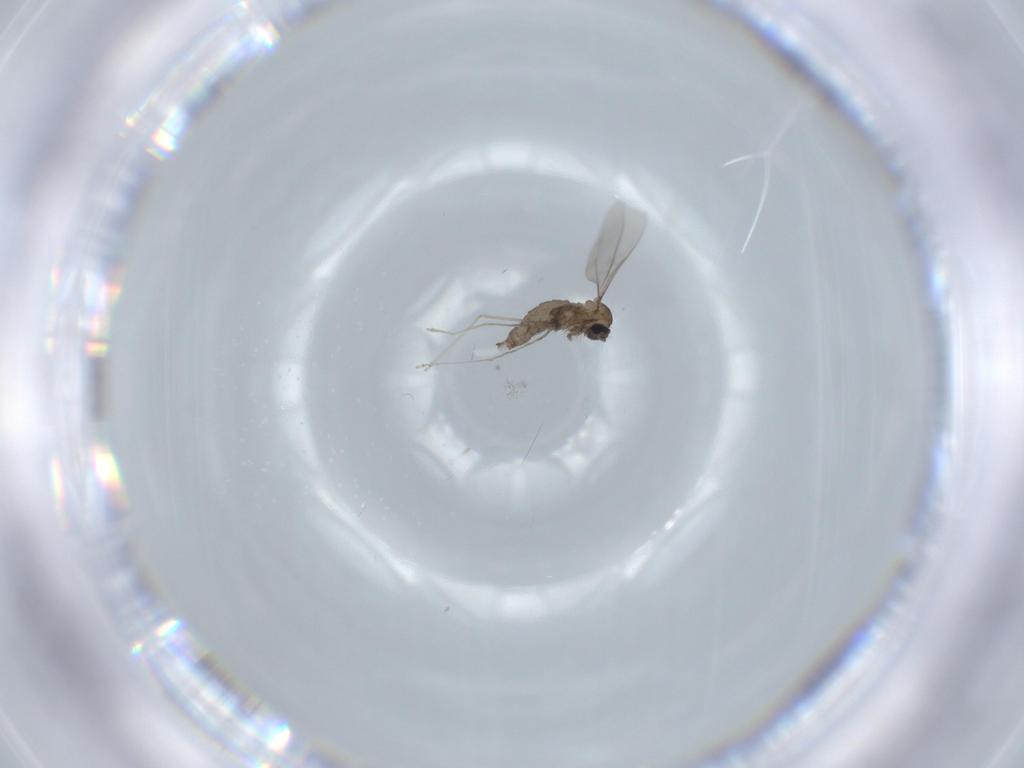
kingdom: Animalia
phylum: Arthropoda
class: Insecta
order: Diptera
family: Cecidomyiidae
